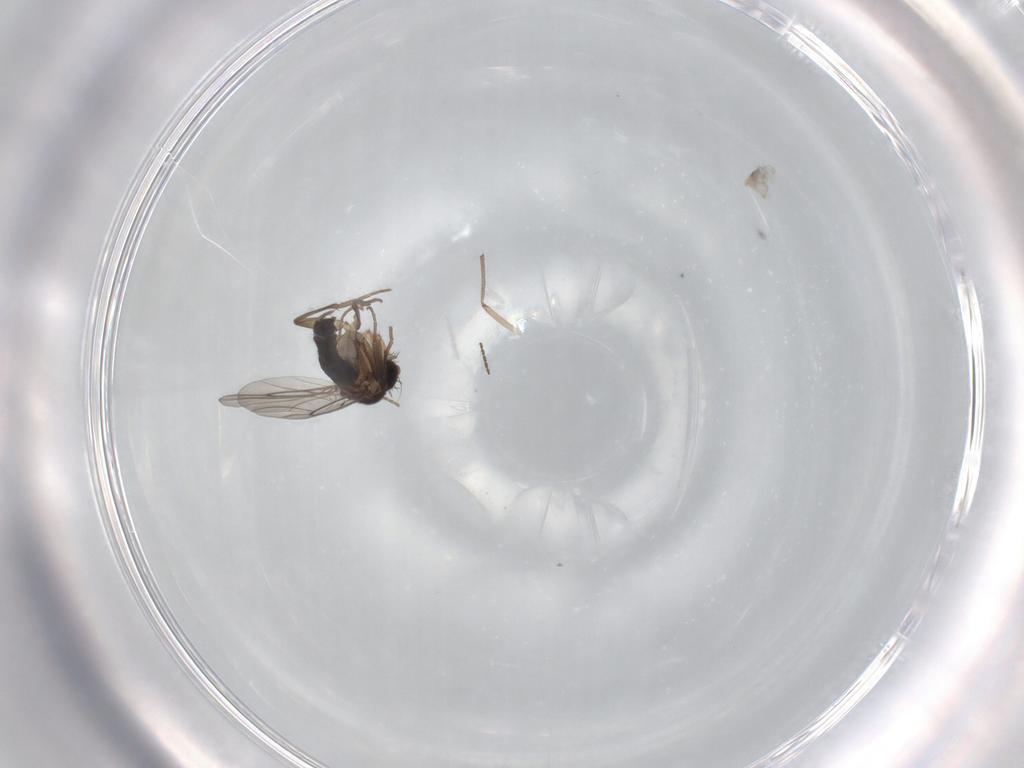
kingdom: Animalia
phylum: Arthropoda
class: Insecta
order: Diptera
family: Phoridae
